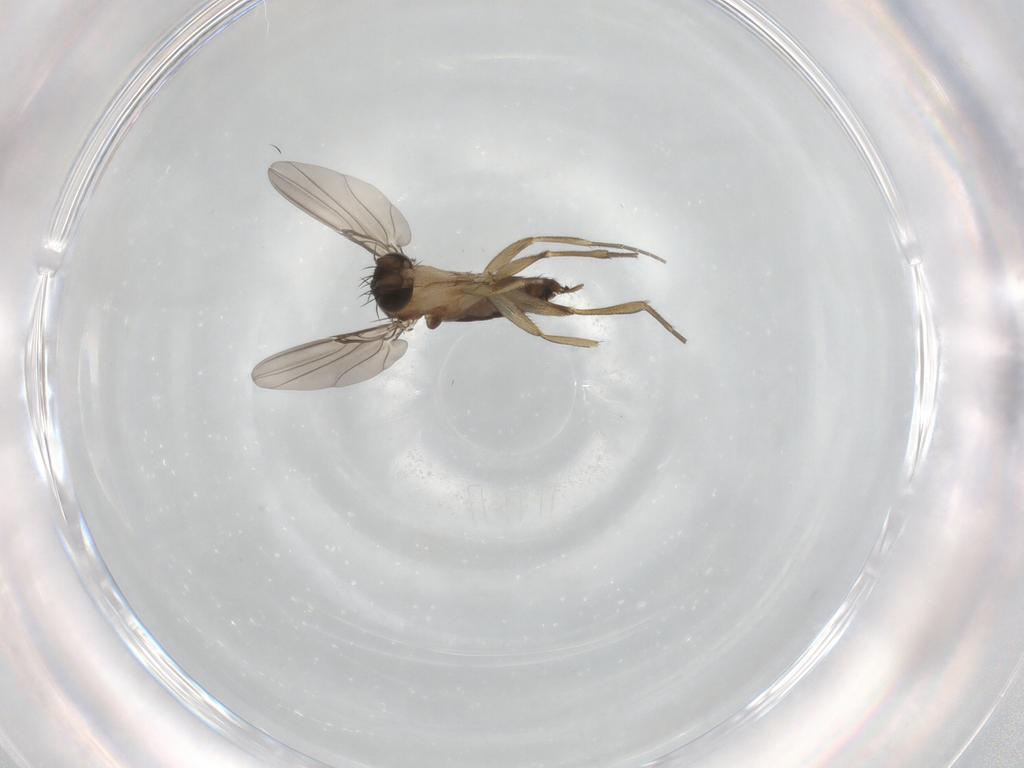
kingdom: Animalia
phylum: Arthropoda
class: Insecta
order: Diptera
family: Phoridae
